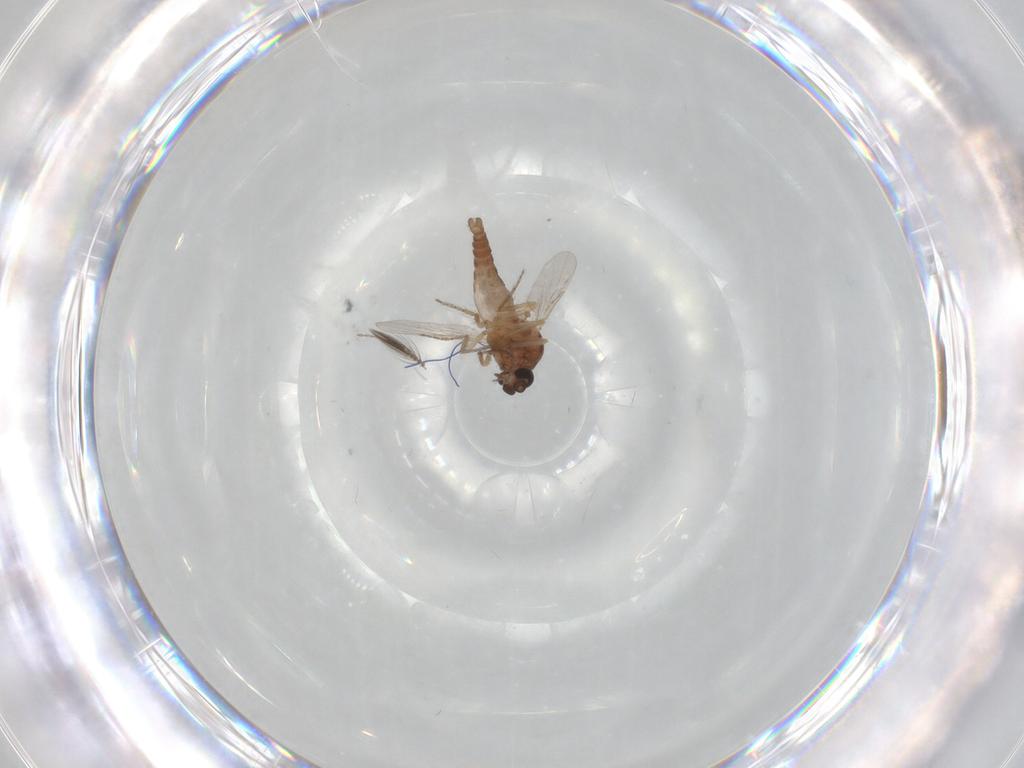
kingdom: Animalia
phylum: Arthropoda
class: Insecta
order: Diptera
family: Ceratopogonidae
